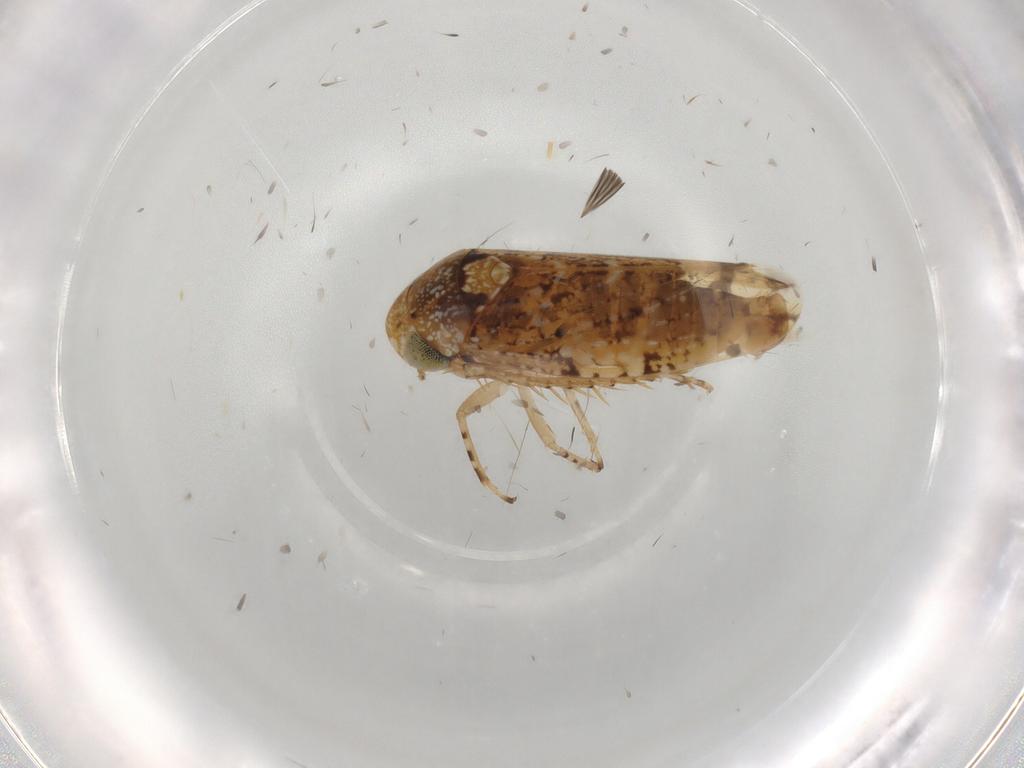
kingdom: Animalia
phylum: Arthropoda
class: Insecta
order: Hemiptera
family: Cicadellidae
